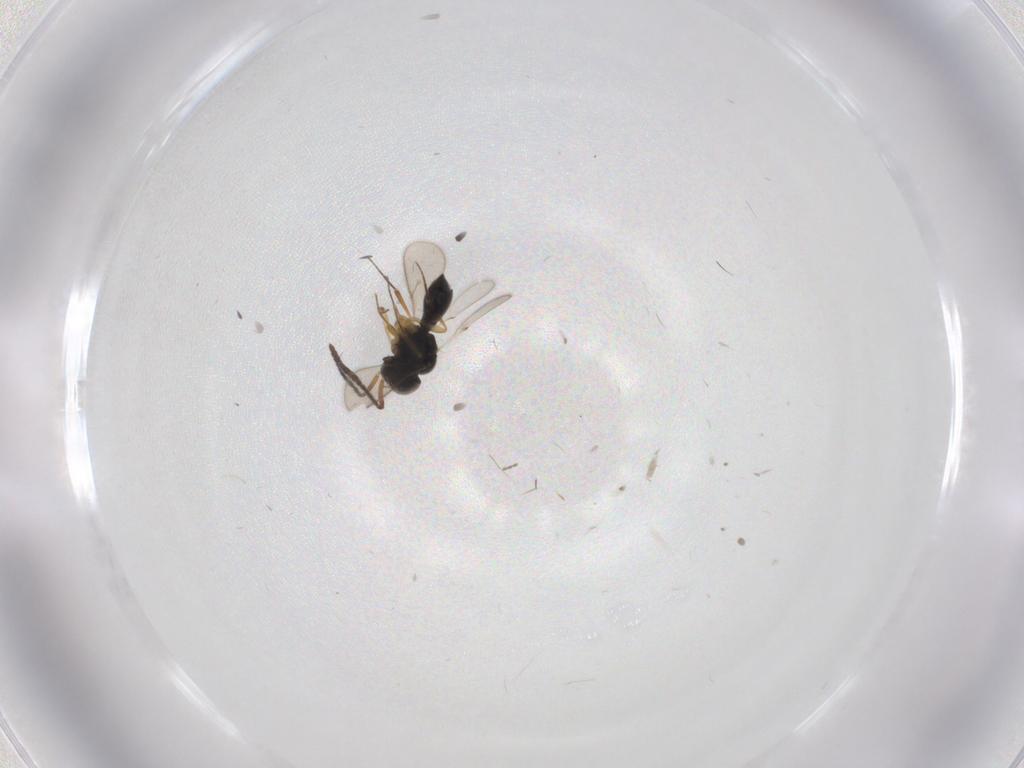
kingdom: Animalia
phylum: Arthropoda
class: Insecta
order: Hymenoptera
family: Scelionidae
